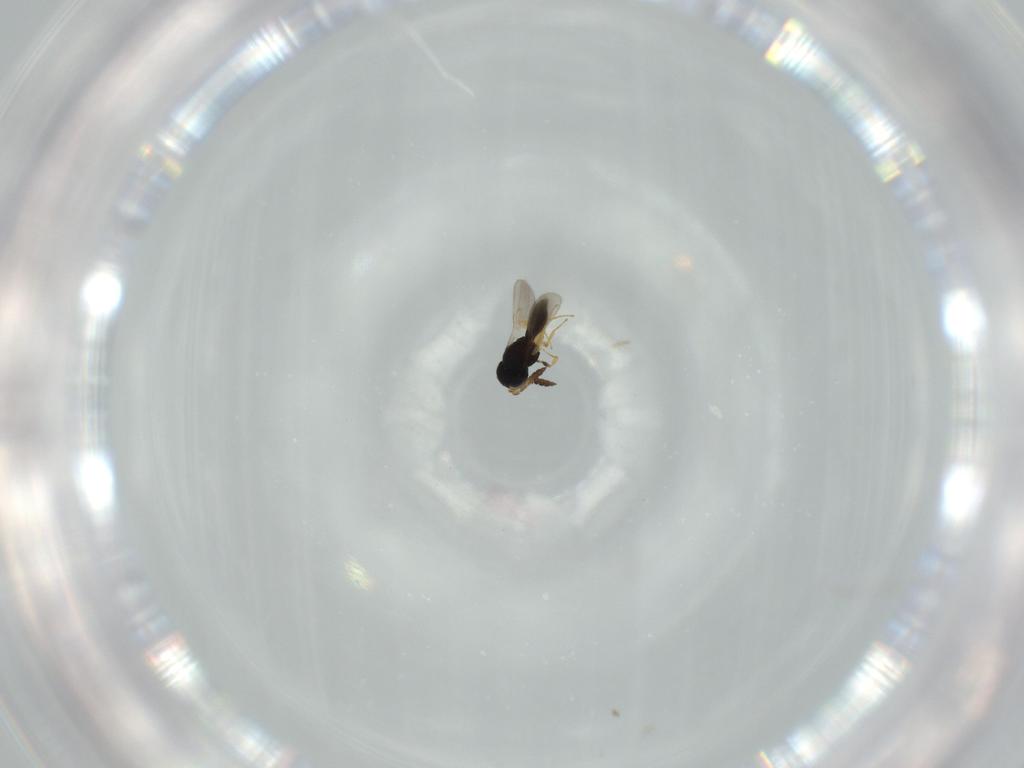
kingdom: Animalia
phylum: Arthropoda
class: Insecta
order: Hymenoptera
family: Scelionidae
